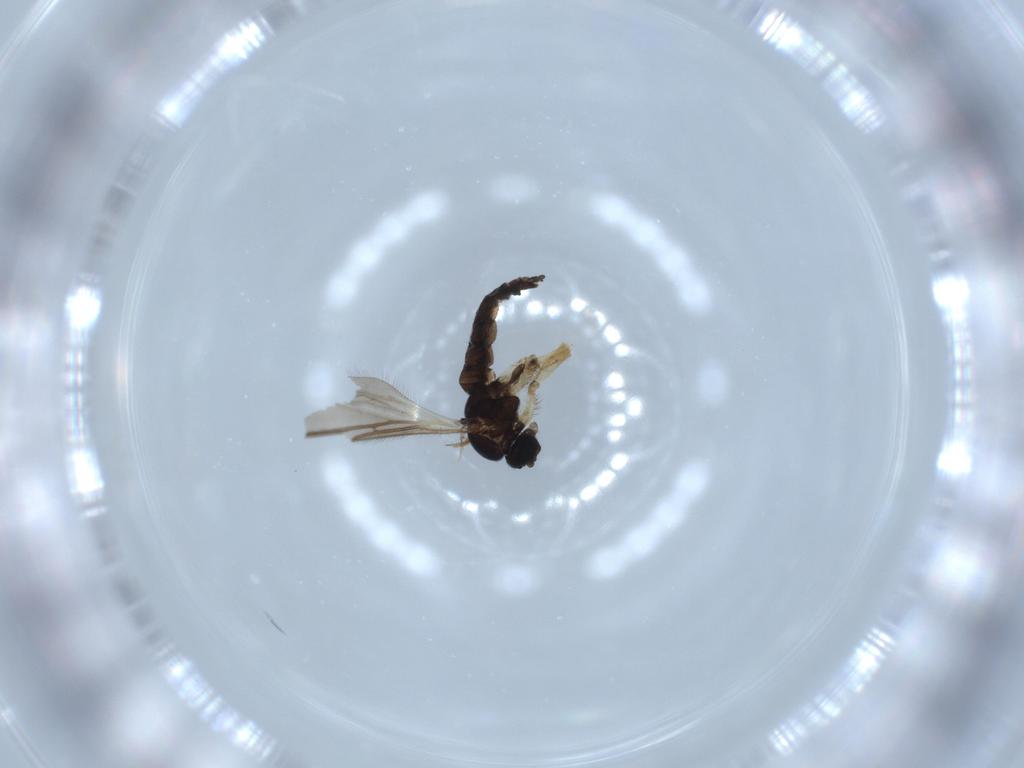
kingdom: Animalia
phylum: Arthropoda
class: Insecta
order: Diptera
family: Sciaridae
